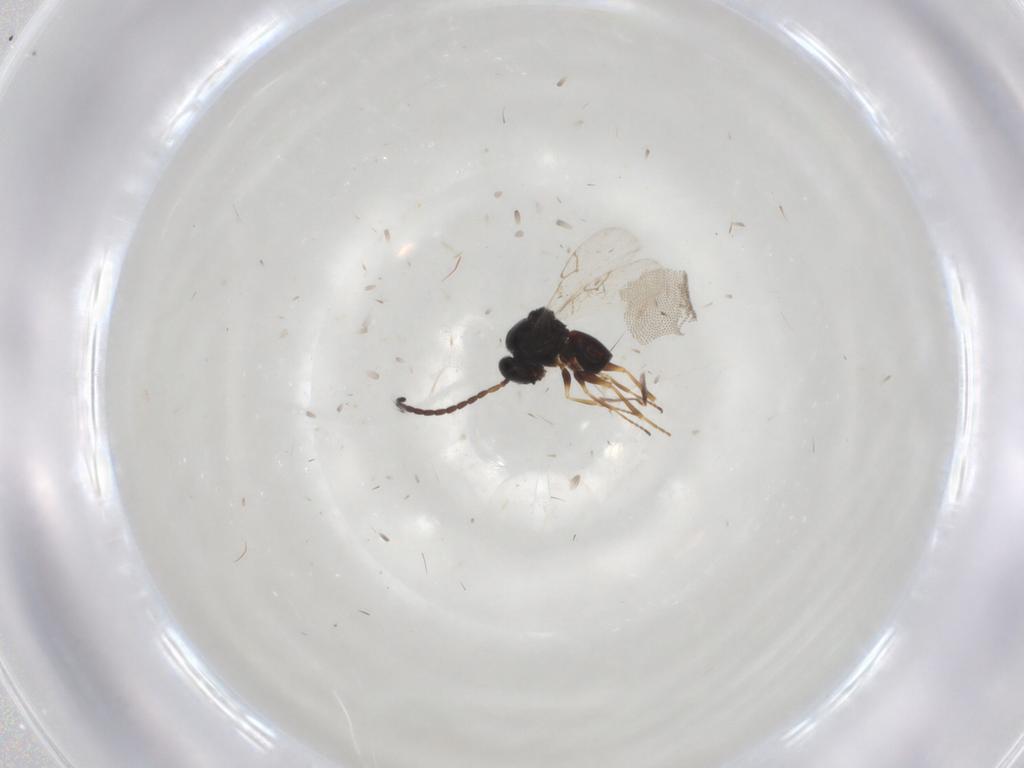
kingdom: Animalia
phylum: Arthropoda
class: Insecta
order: Hymenoptera
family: Figitidae
